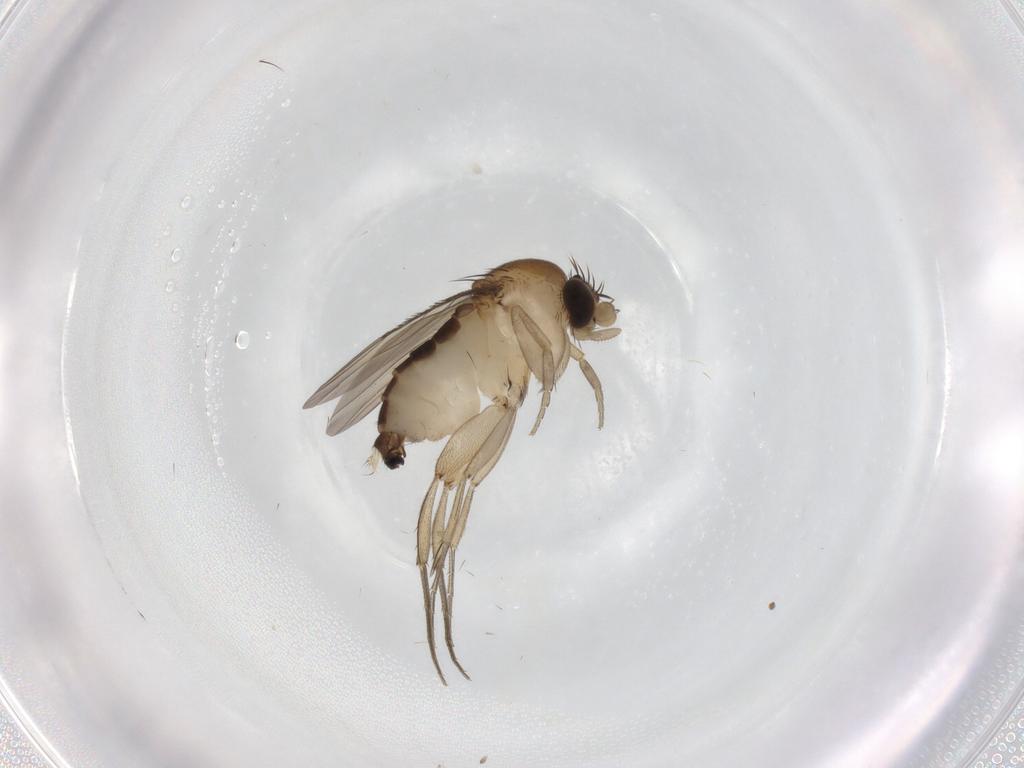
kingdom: Animalia
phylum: Arthropoda
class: Insecta
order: Diptera
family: Phoridae
